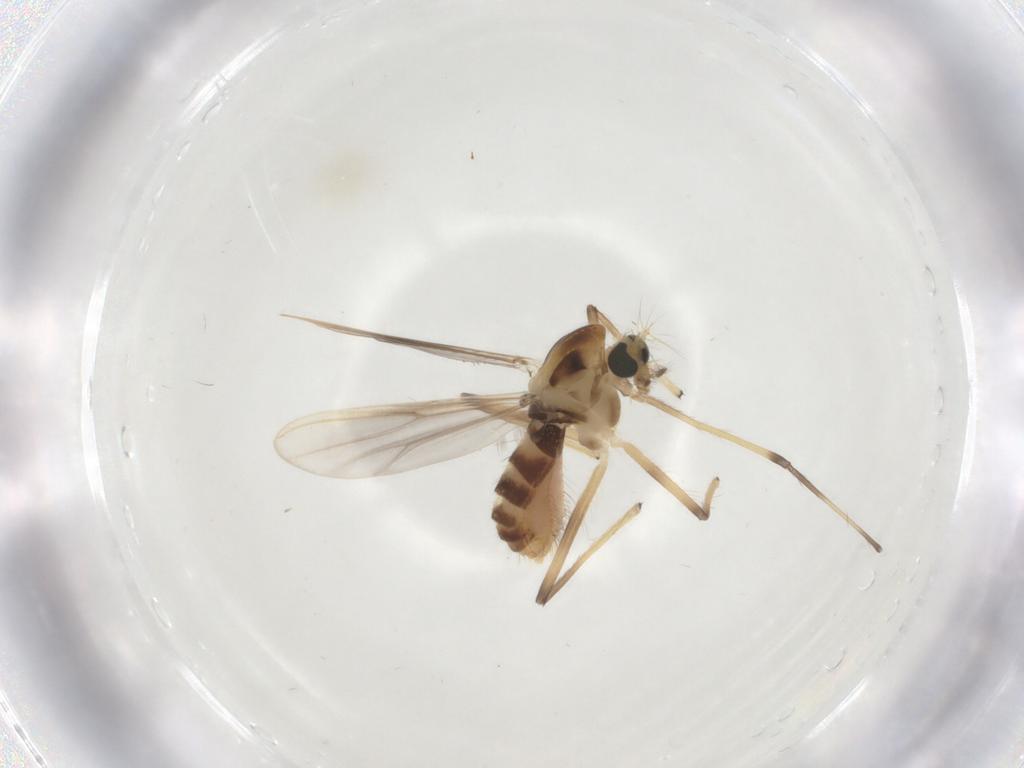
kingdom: Animalia
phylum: Arthropoda
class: Insecta
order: Diptera
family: Chironomidae
